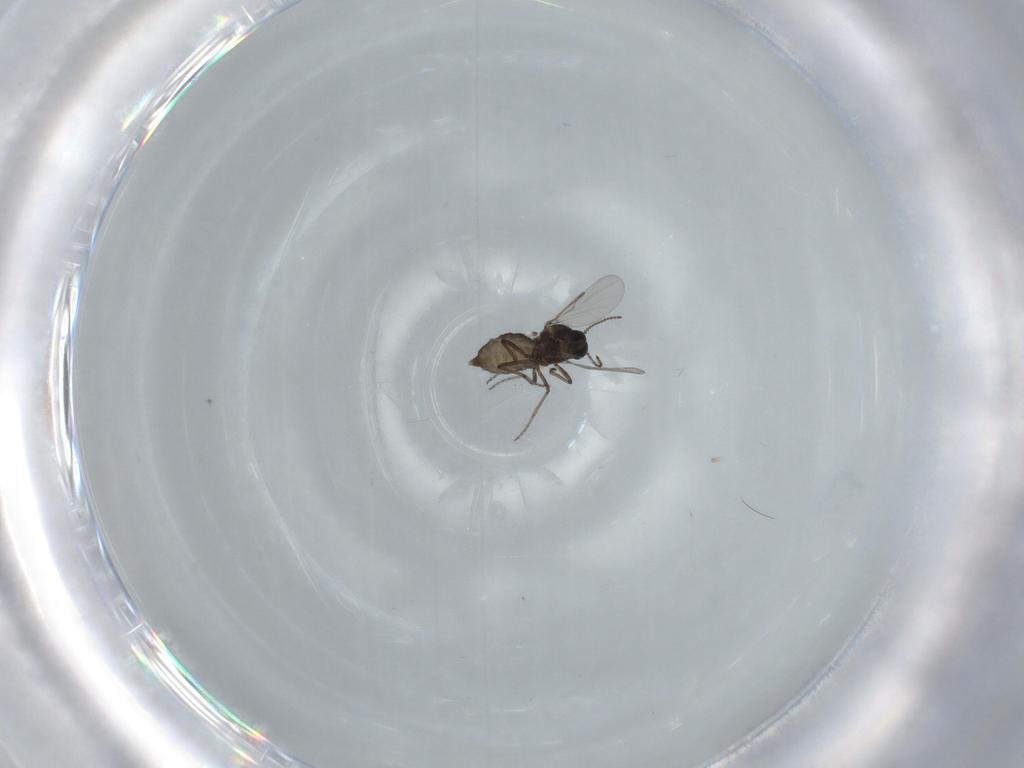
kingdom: Animalia
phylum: Arthropoda
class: Insecta
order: Diptera
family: Ceratopogonidae
